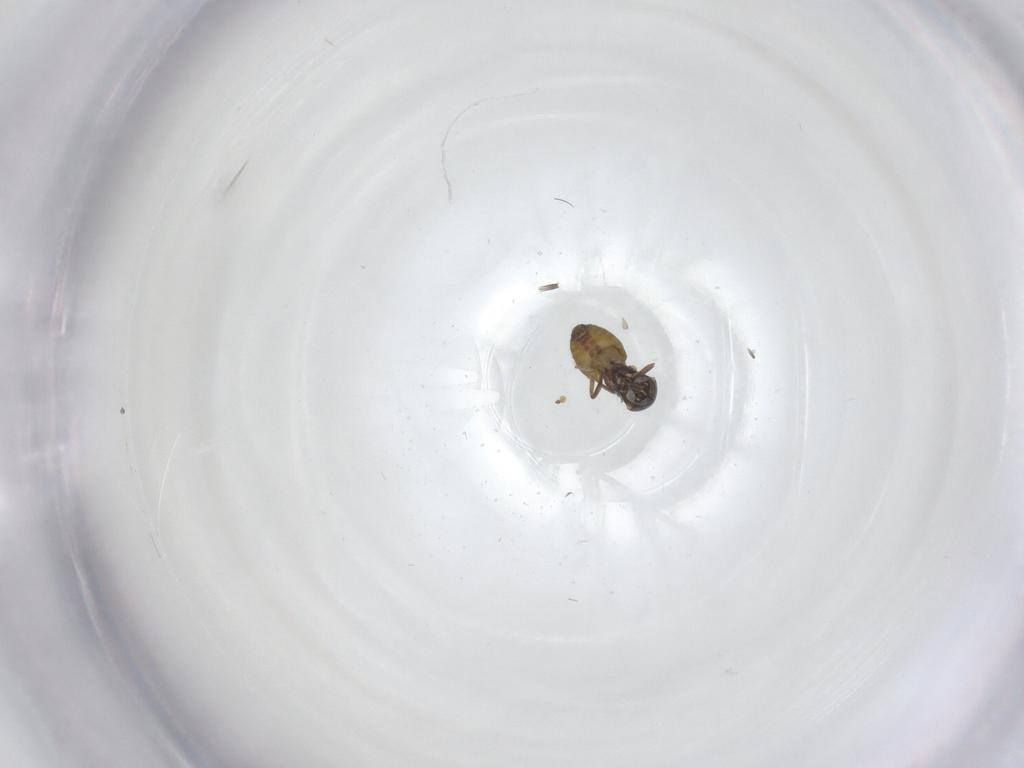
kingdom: Animalia
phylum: Arthropoda
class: Insecta
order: Diptera
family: Ceratopogonidae
